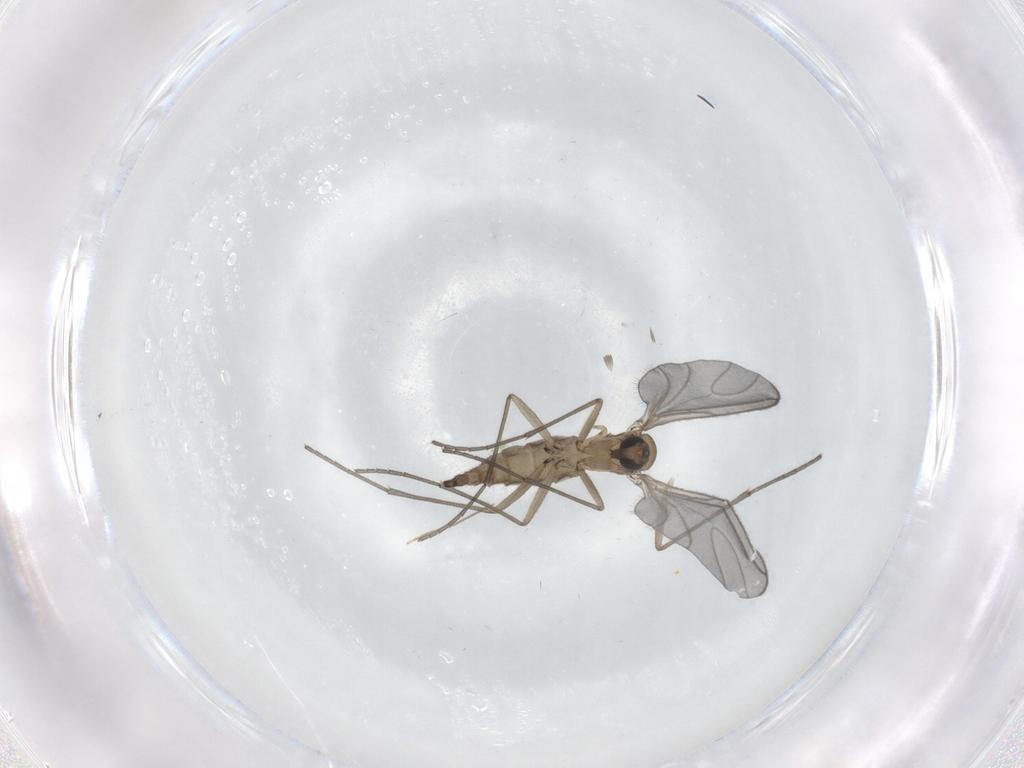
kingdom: Animalia
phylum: Arthropoda
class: Insecta
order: Diptera
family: Sciaridae
